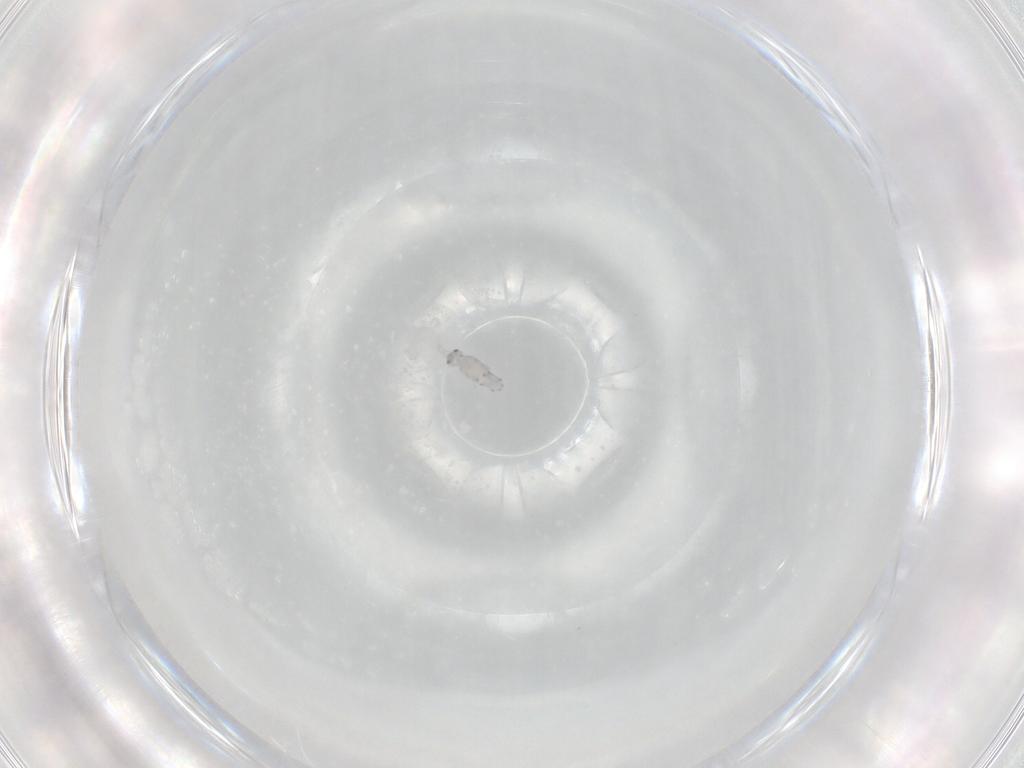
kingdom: Animalia
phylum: Arthropoda
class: Collembola
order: Entomobryomorpha
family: Entomobryidae
